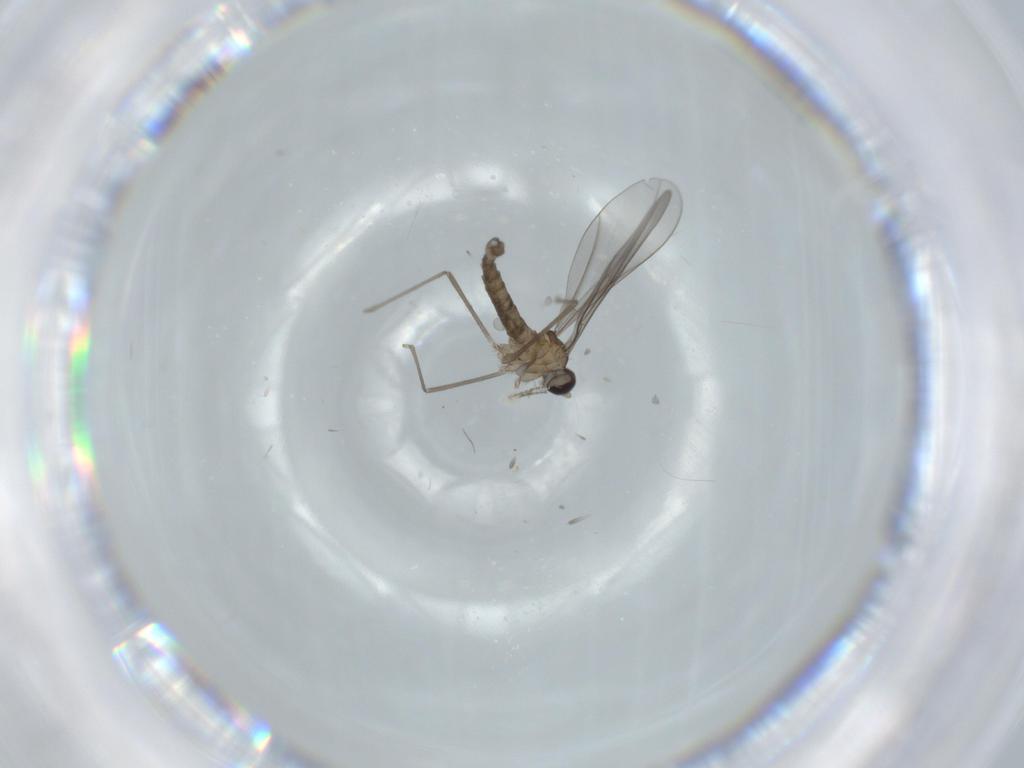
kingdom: Animalia
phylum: Arthropoda
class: Insecta
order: Diptera
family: Cecidomyiidae
